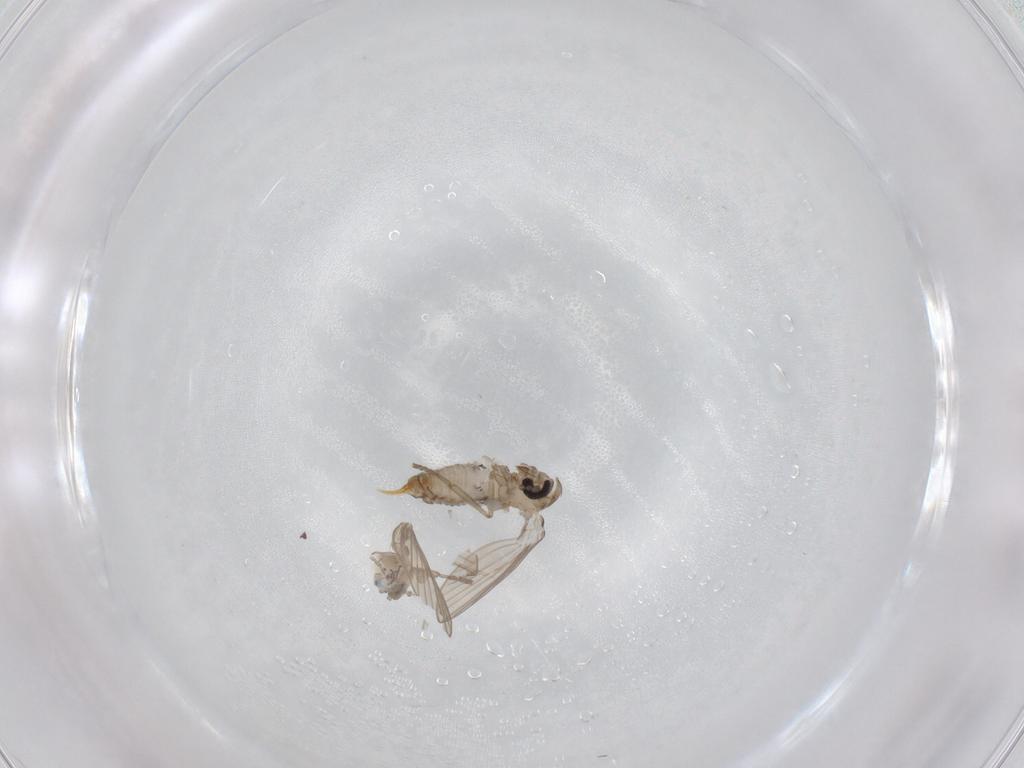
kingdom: Animalia
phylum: Arthropoda
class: Insecta
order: Diptera
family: Psychodidae
